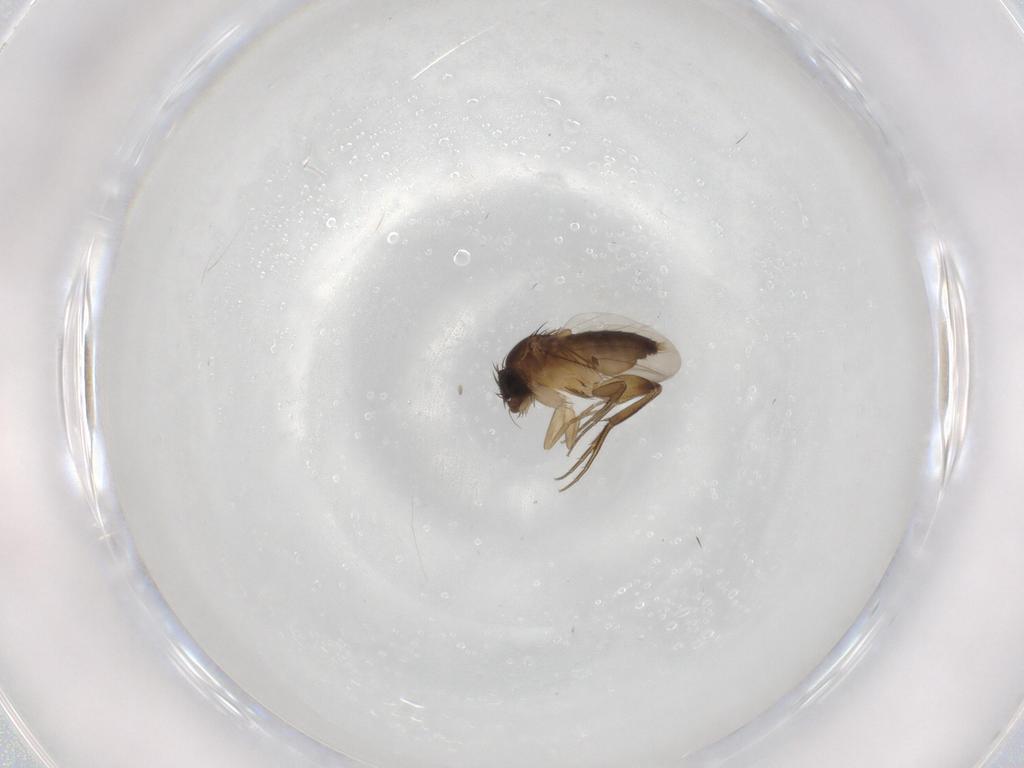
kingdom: Animalia
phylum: Arthropoda
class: Insecta
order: Diptera
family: Phoridae
